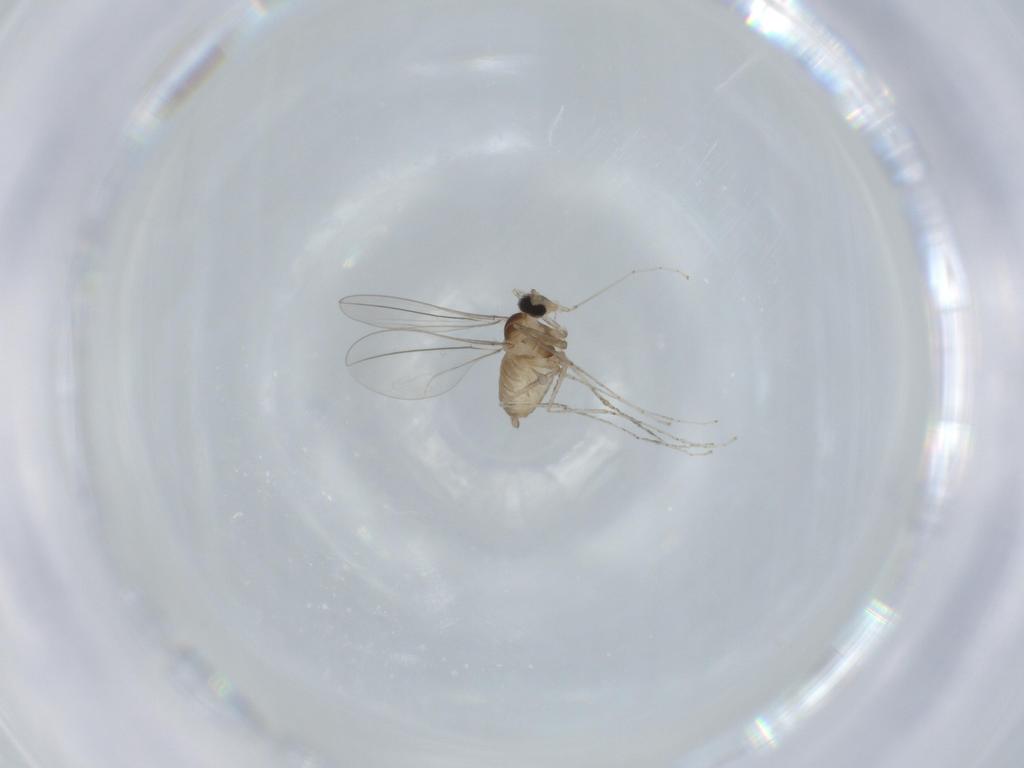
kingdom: Animalia
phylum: Arthropoda
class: Insecta
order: Diptera
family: Cecidomyiidae
